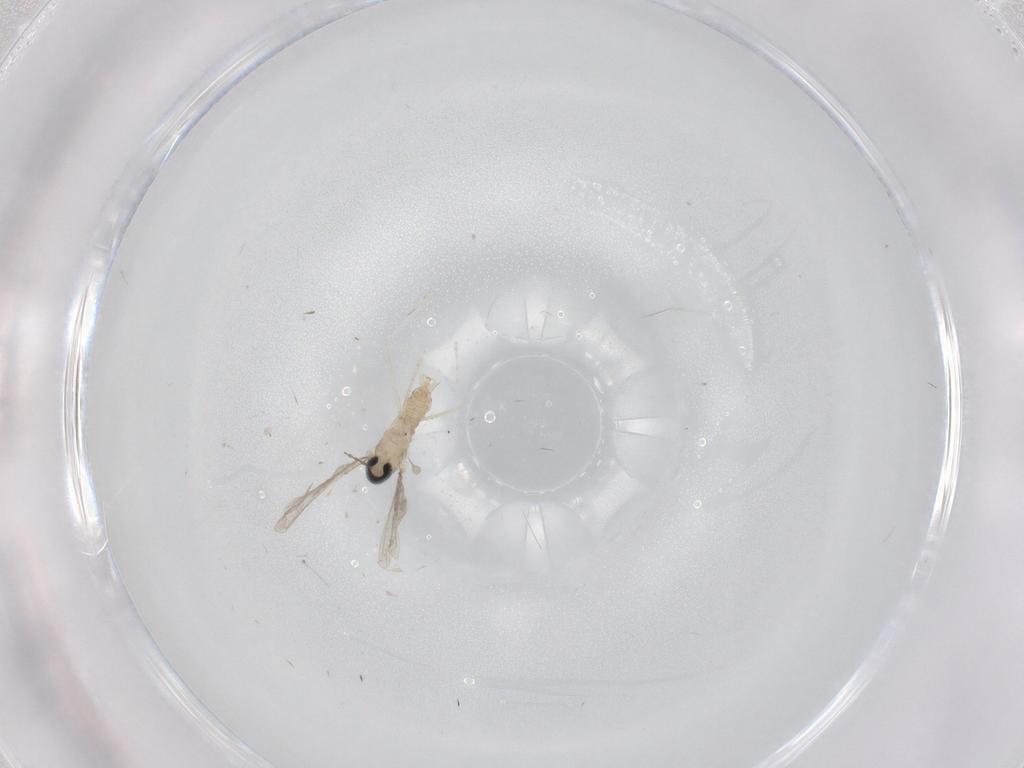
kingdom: Animalia
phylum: Arthropoda
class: Insecta
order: Diptera
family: Cecidomyiidae
